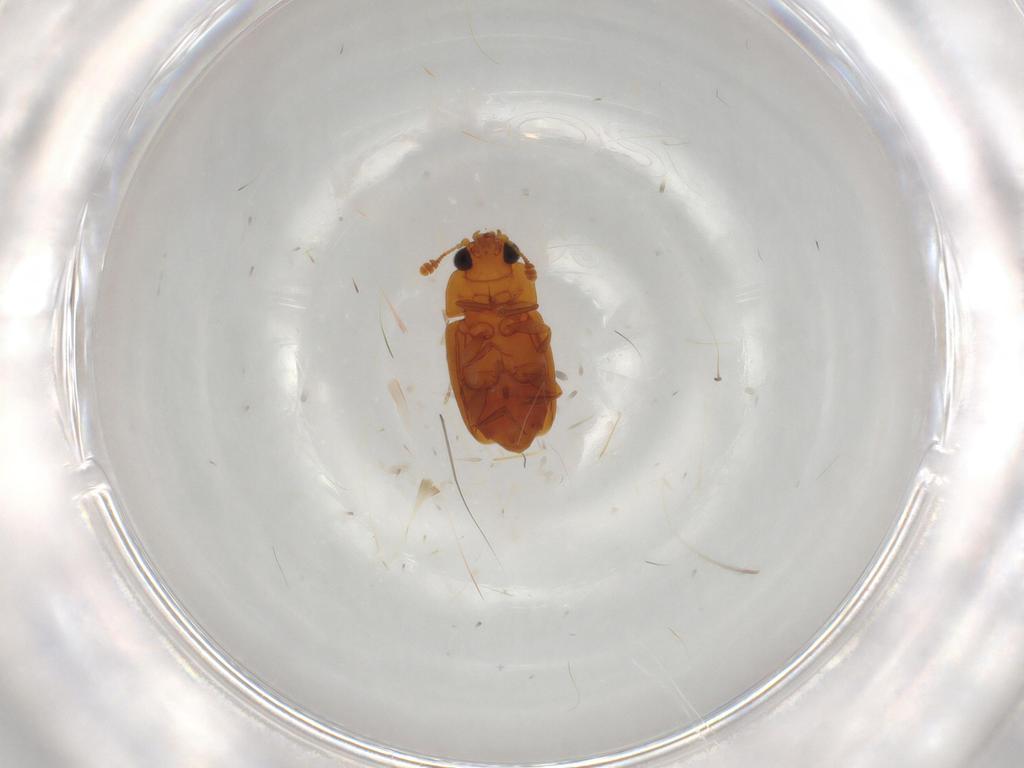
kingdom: Animalia
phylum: Arthropoda
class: Insecta
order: Coleoptera
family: Nitidulidae
